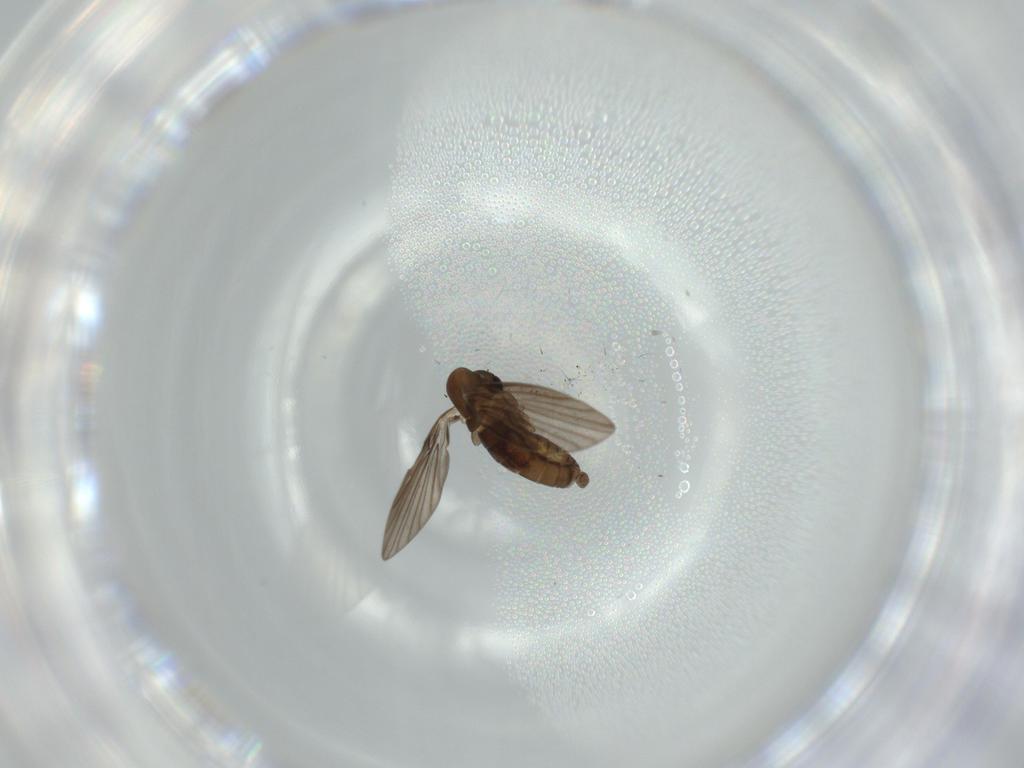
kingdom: Animalia
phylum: Arthropoda
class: Insecta
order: Diptera
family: Psychodidae
